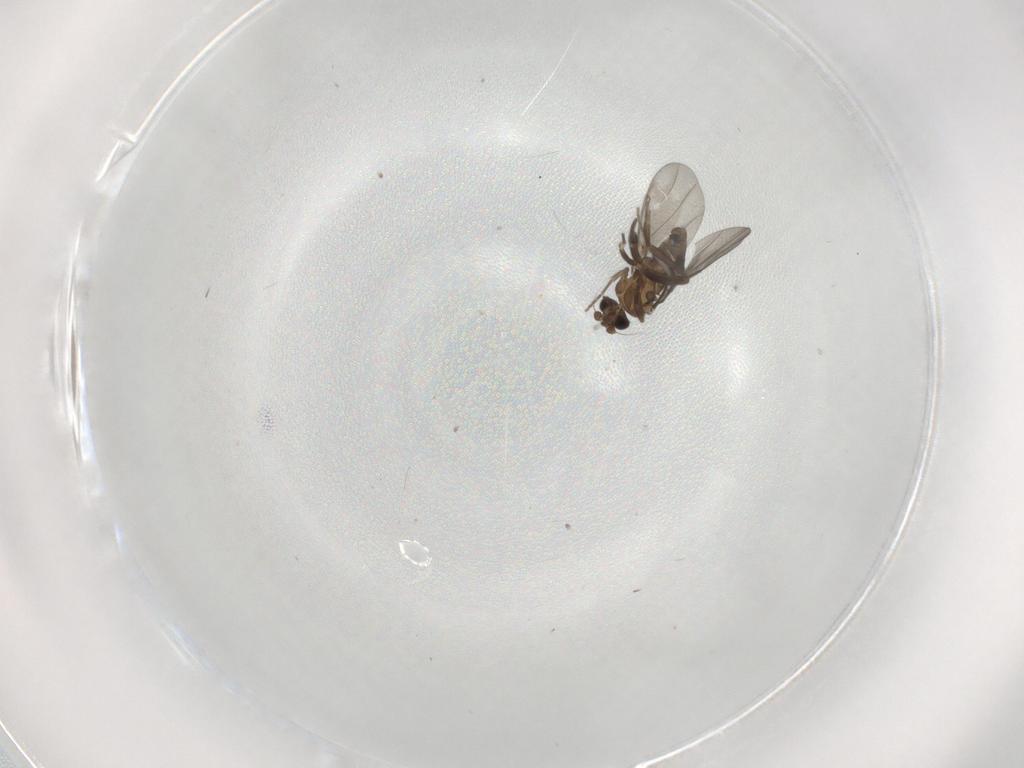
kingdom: Animalia
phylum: Arthropoda
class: Insecta
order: Diptera
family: Phoridae
